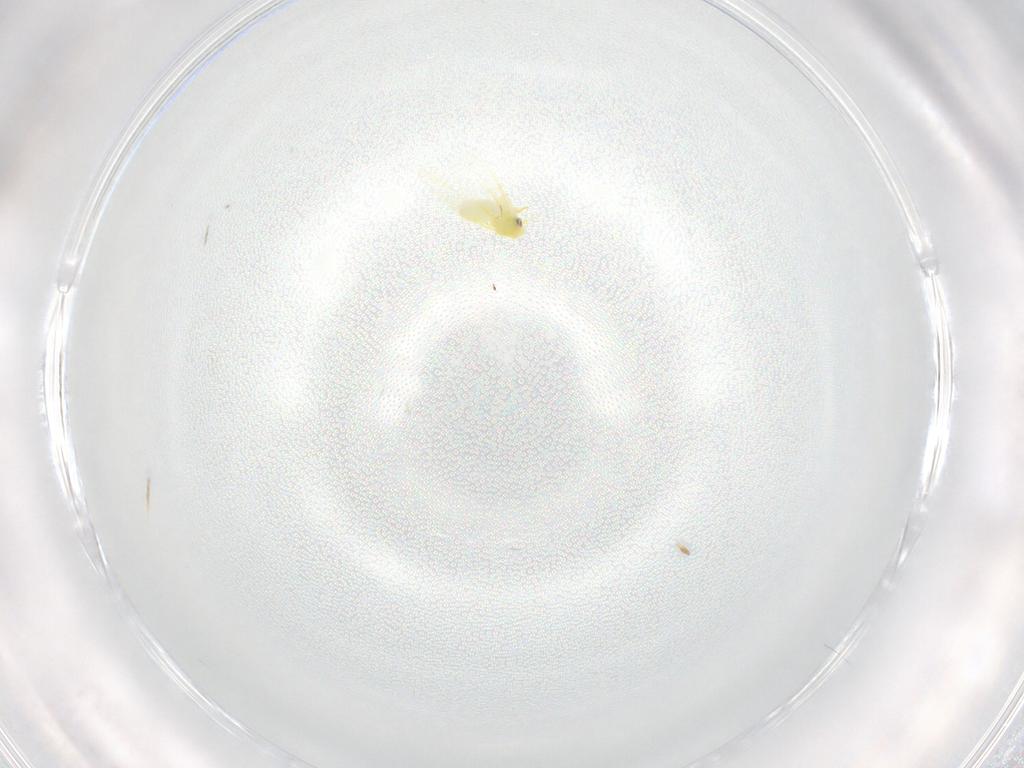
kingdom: Animalia
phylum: Arthropoda
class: Insecta
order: Hemiptera
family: Aleyrodidae
